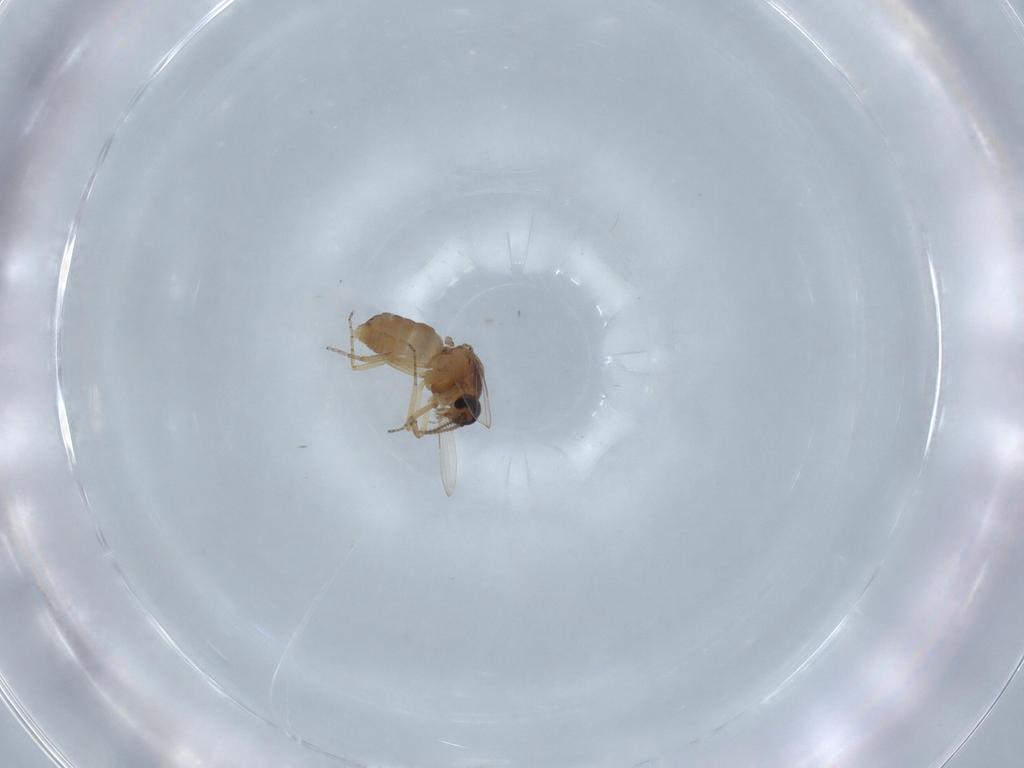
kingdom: Animalia
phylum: Arthropoda
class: Insecta
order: Diptera
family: Ceratopogonidae
